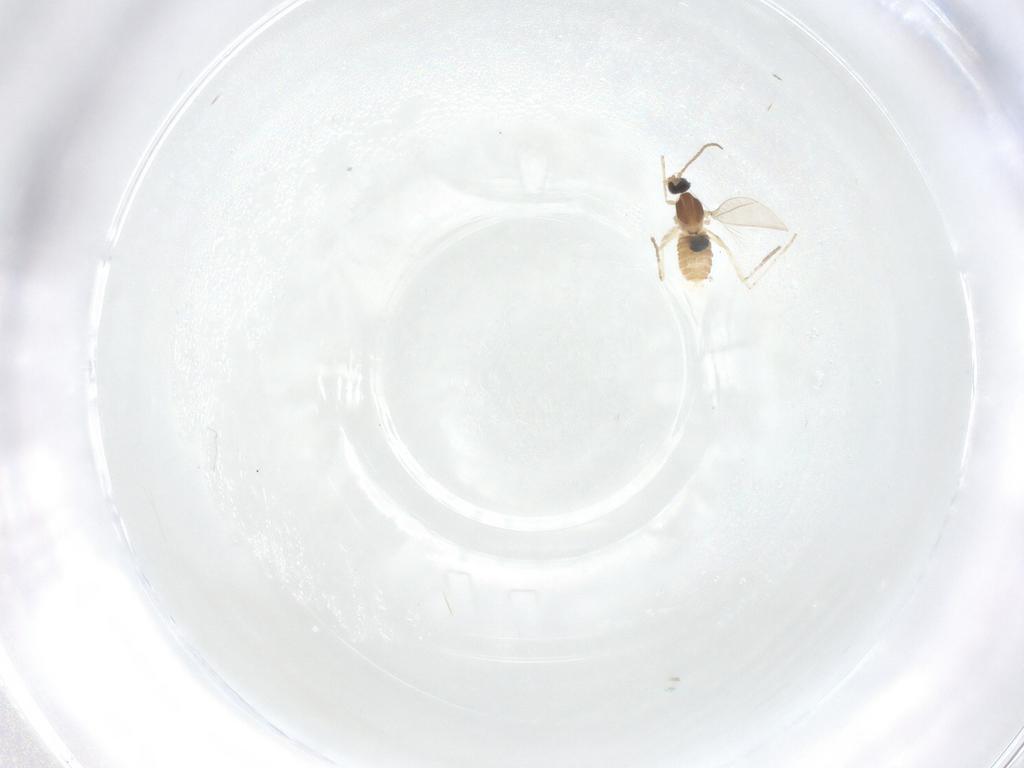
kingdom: Animalia
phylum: Arthropoda
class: Insecta
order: Diptera
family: Cecidomyiidae
